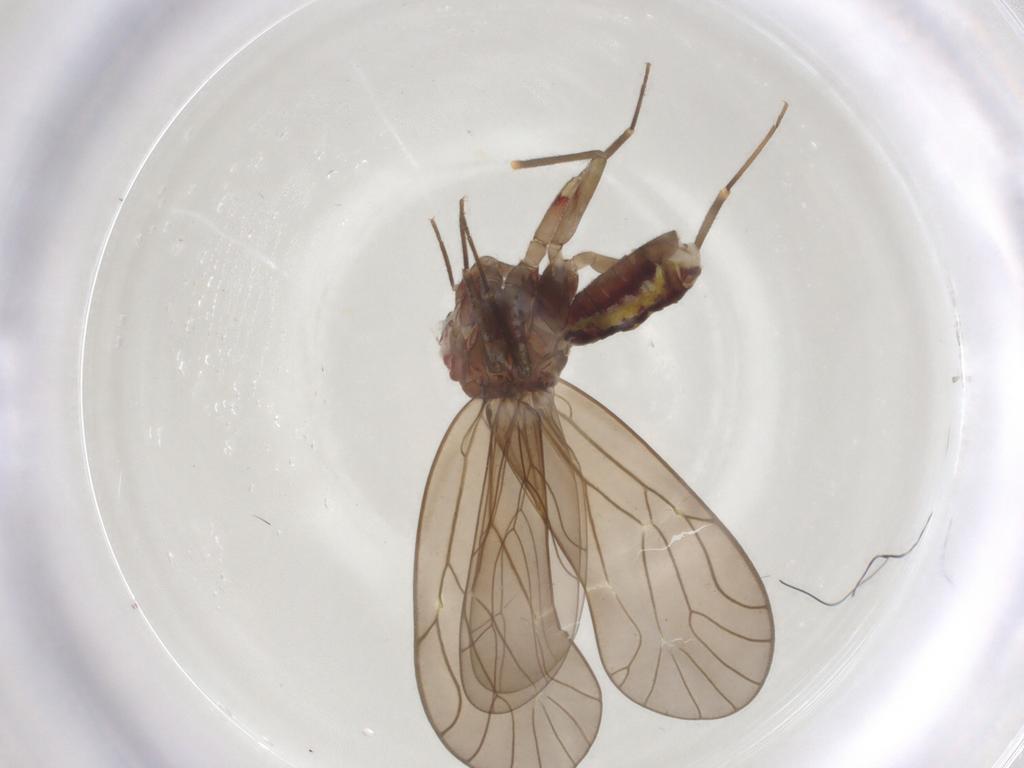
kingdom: Animalia
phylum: Arthropoda
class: Insecta
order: Psocodea
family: Philotarsidae
